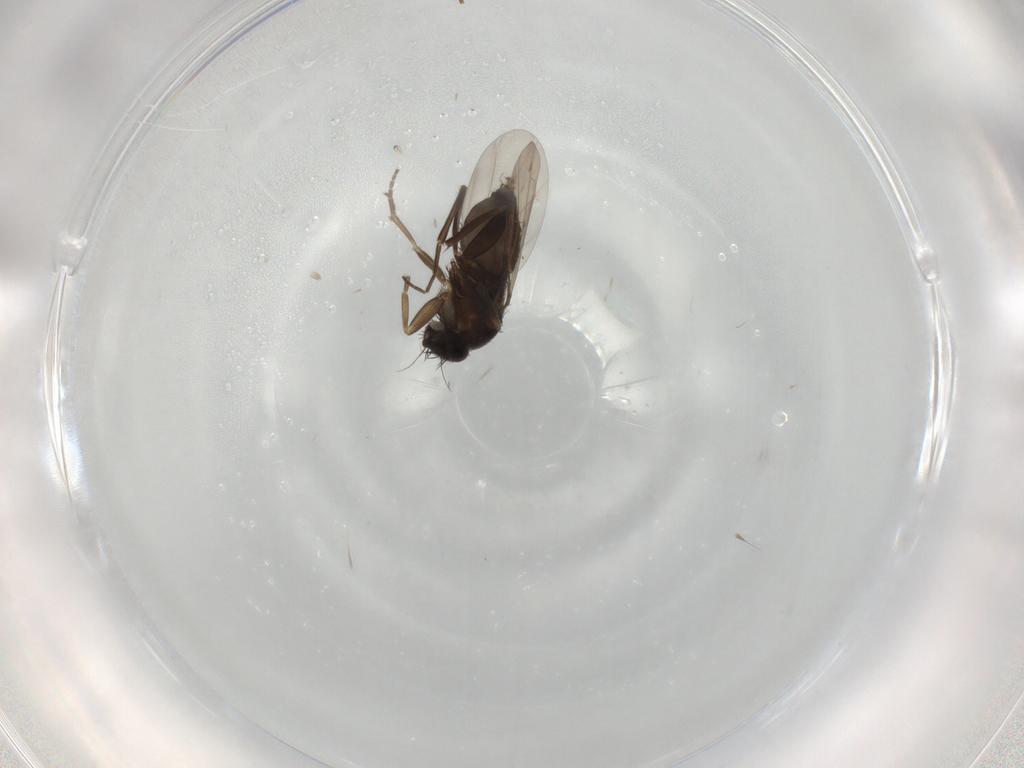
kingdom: Animalia
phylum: Arthropoda
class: Insecta
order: Diptera
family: Phoridae
